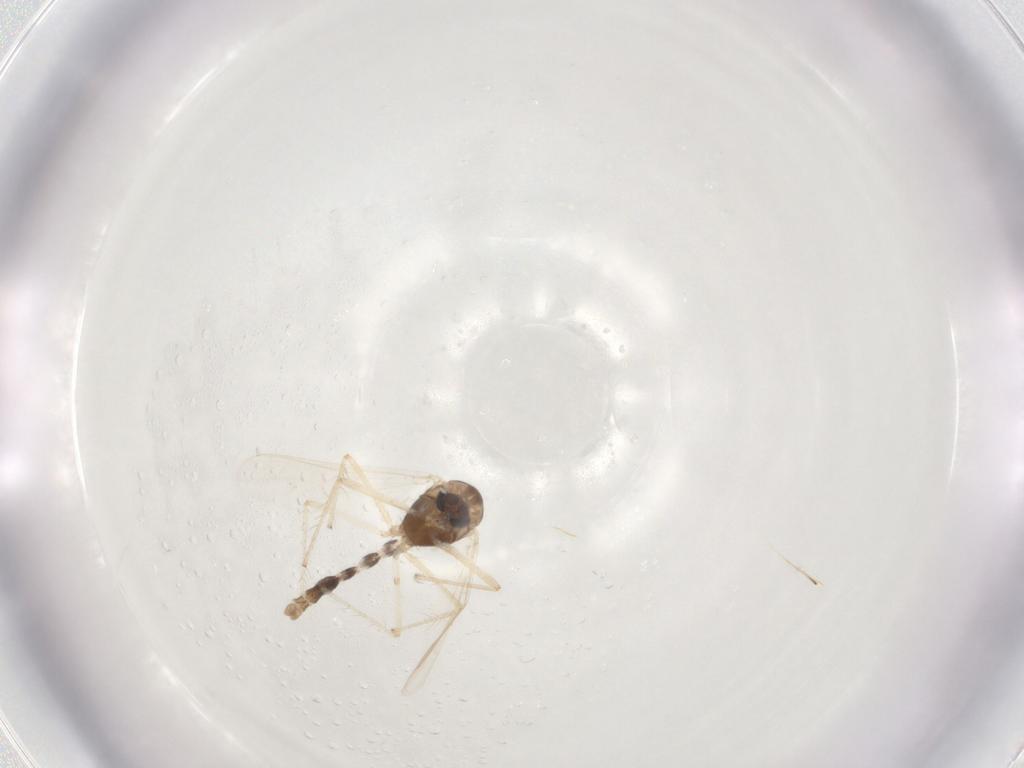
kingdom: Animalia
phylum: Arthropoda
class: Insecta
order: Diptera
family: Chironomidae
